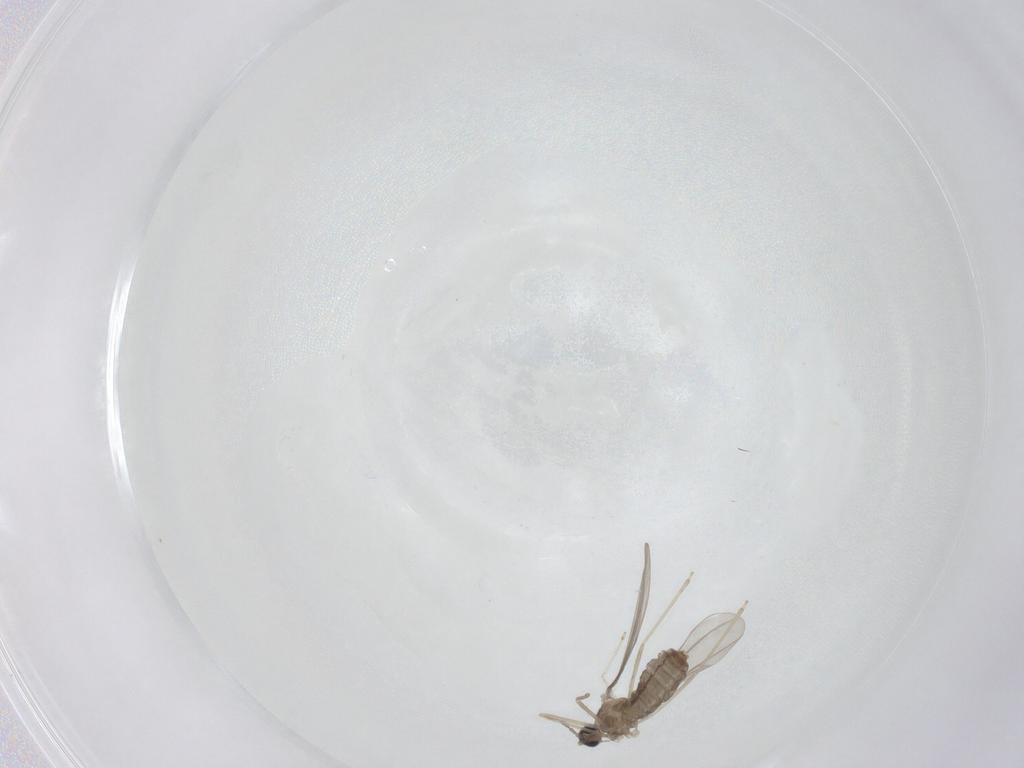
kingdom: Animalia
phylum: Arthropoda
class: Insecta
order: Diptera
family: Cecidomyiidae
